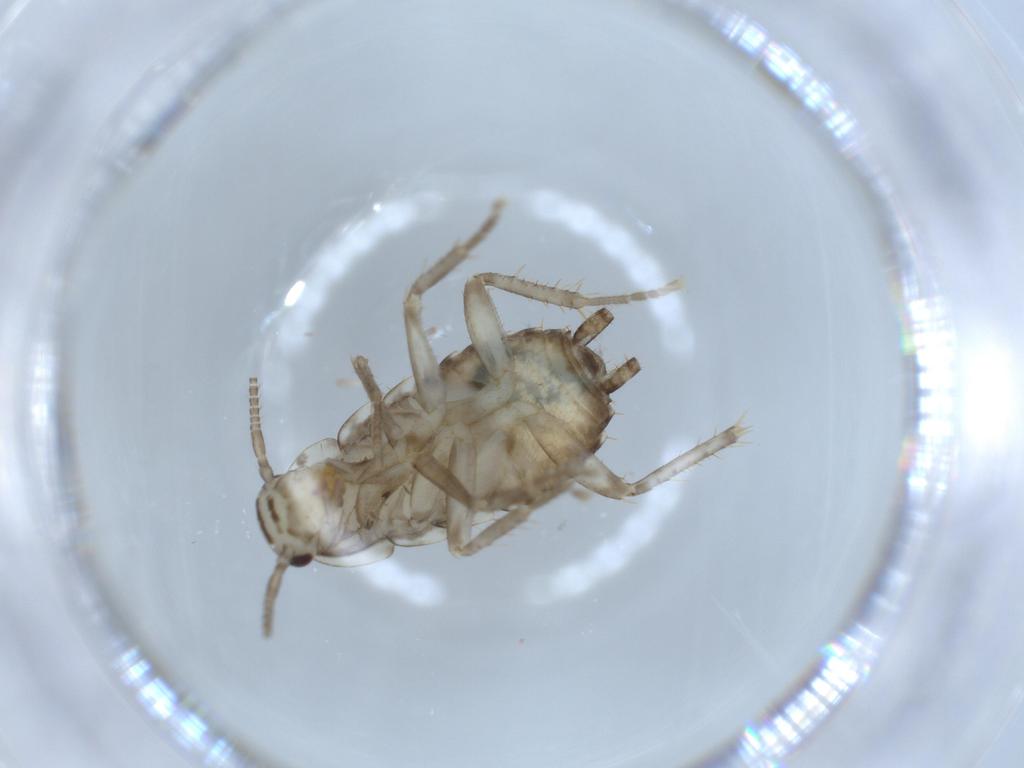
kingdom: Animalia
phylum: Arthropoda
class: Insecta
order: Blattodea
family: Ectobiidae
